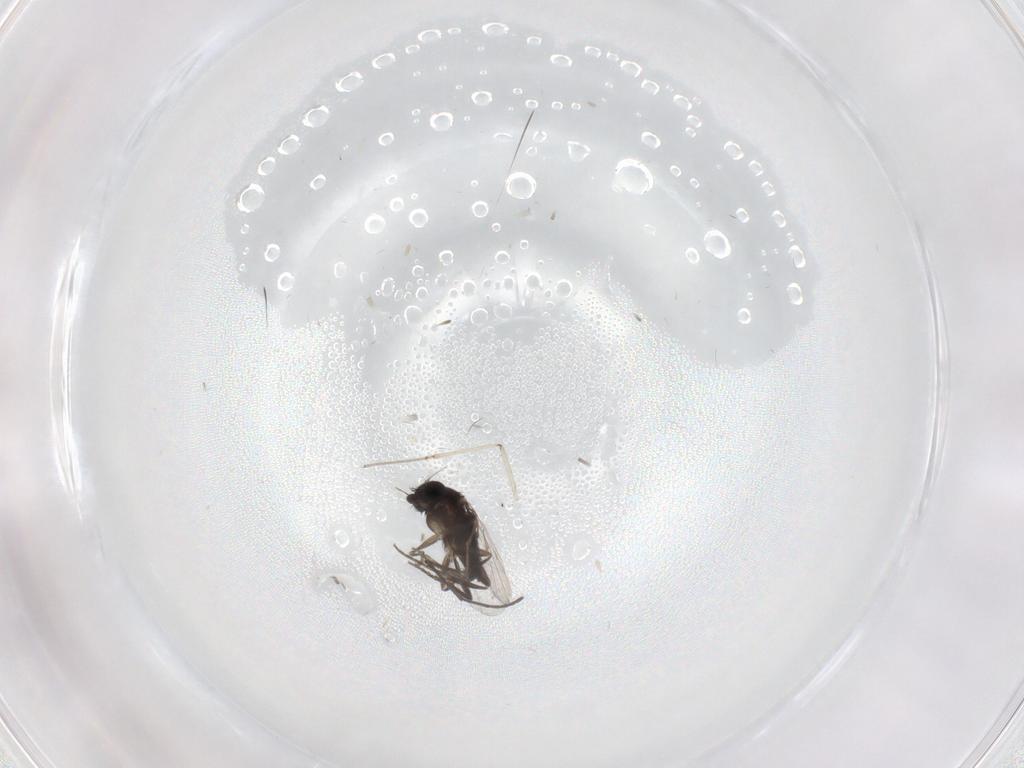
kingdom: Animalia
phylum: Arthropoda
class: Insecta
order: Diptera
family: Phoridae
